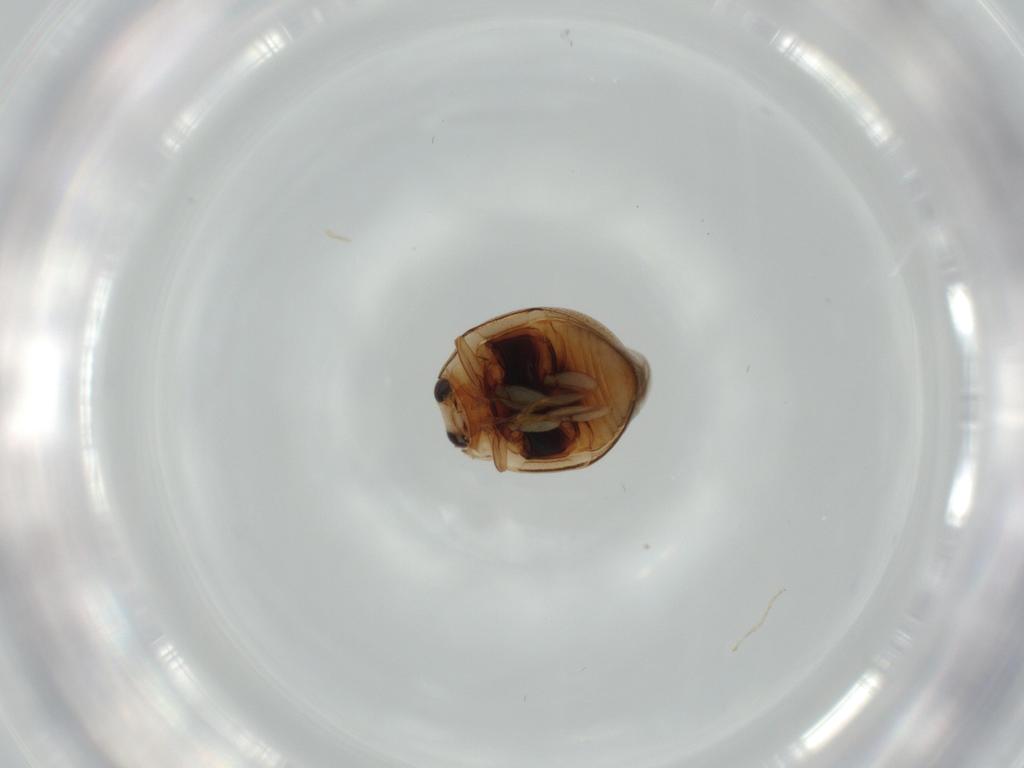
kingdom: Animalia
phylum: Arthropoda
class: Insecta
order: Coleoptera
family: Coccinellidae
